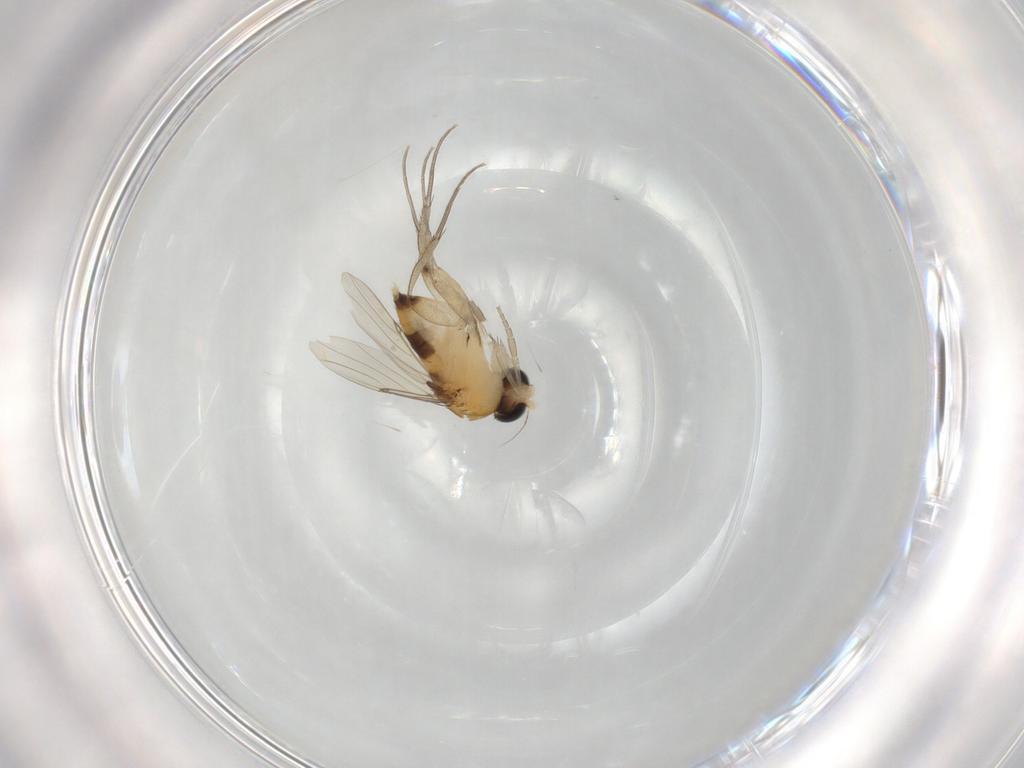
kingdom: Animalia
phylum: Arthropoda
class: Insecta
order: Diptera
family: Phoridae
